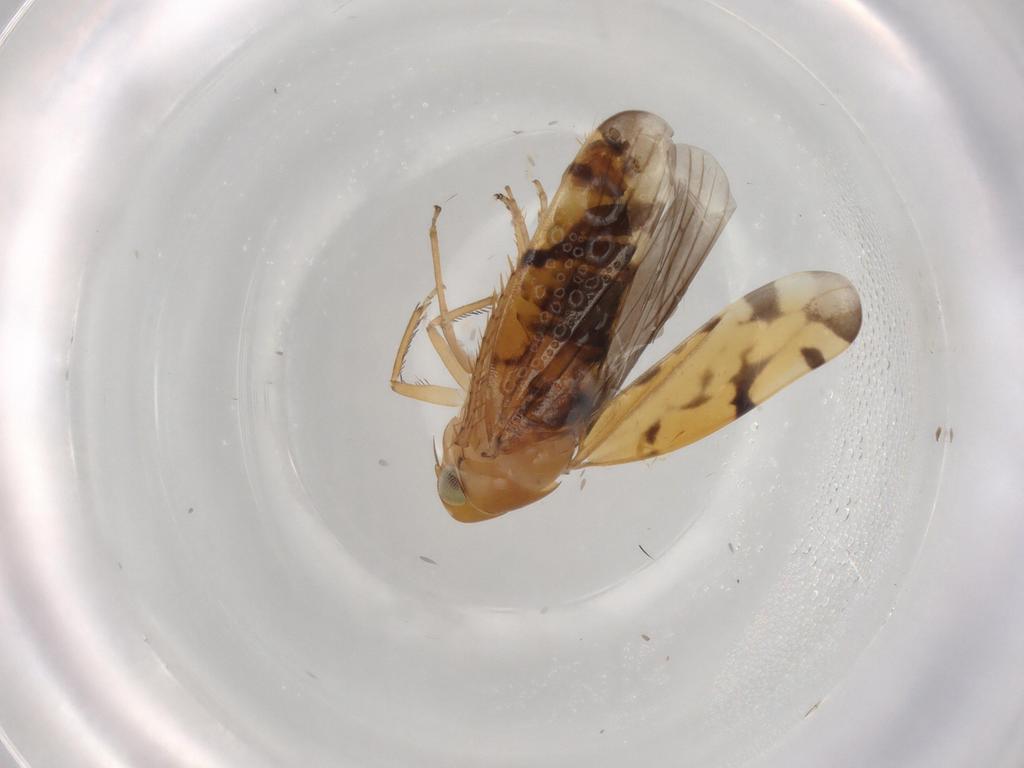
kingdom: Animalia
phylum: Arthropoda
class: Insecta
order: Hemiptera
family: Cicadellidae
